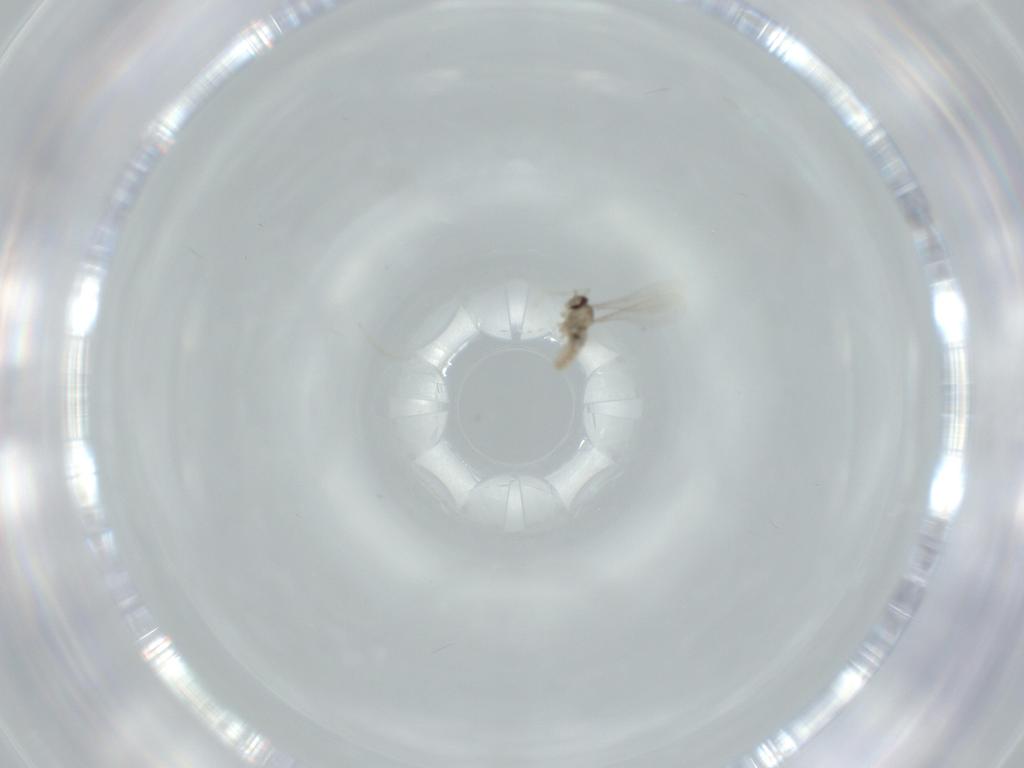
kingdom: Animalia
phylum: Arthropoda
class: Insecta
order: Diptera
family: Cecidomyiidae
